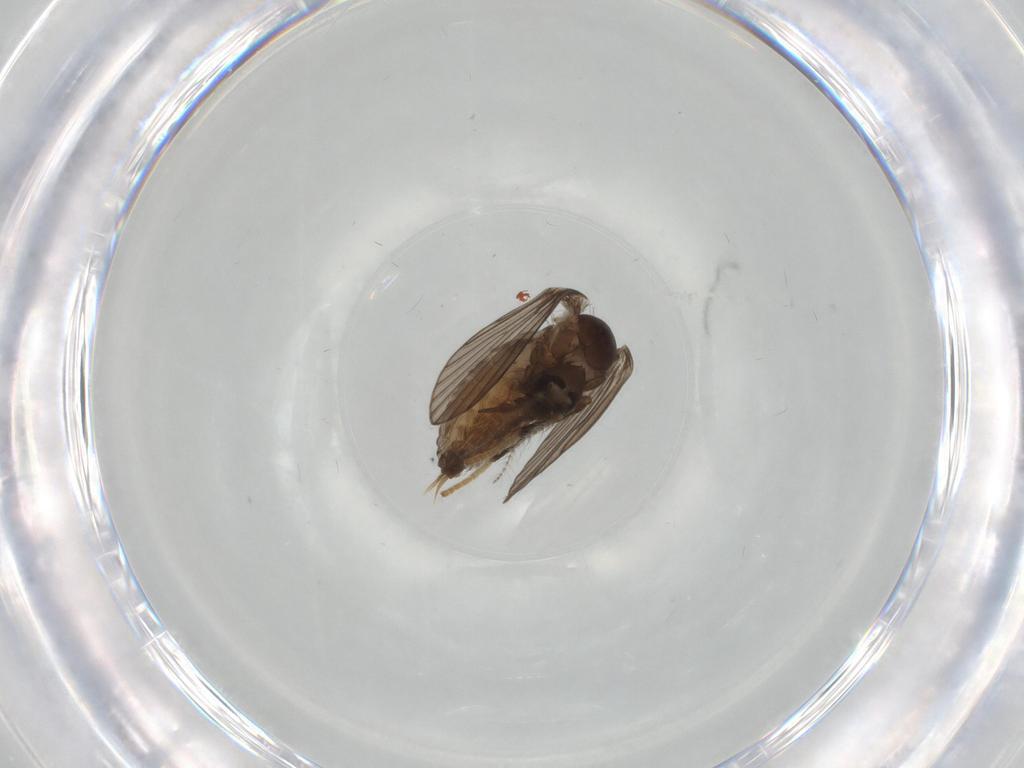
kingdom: Animalia
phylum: Arthropoda
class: Insecta
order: Diptera
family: Psychodidae
